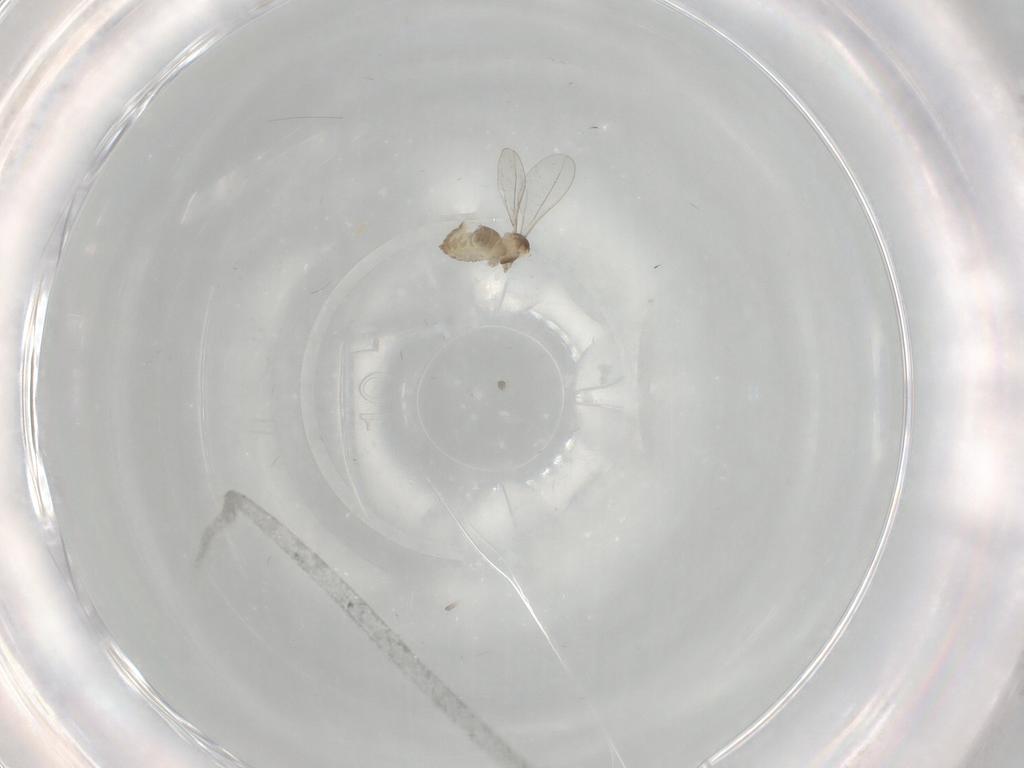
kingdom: Animalia
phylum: Arthropoda
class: Insecta
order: Diptera
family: Cecidomyiidae
